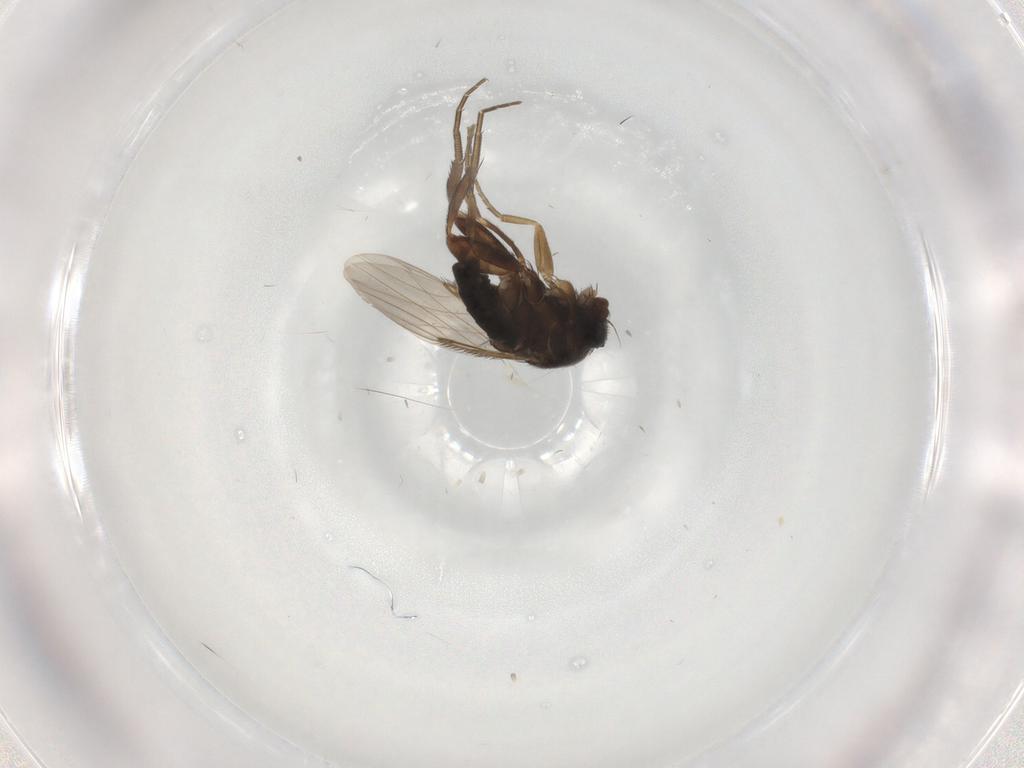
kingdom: Animalia
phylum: Arthropoda
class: Insecta
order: Diptera
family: Phoridae
